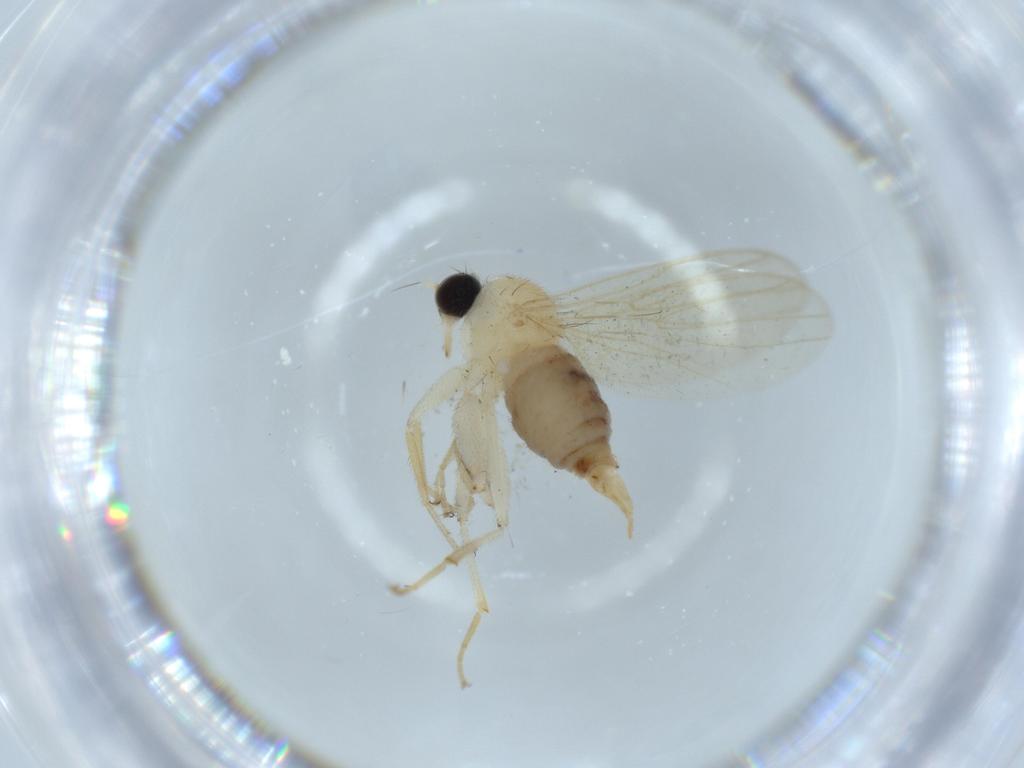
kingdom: Animalia
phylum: Arthropoda
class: Insecta
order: Diptera
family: Hybotidae
